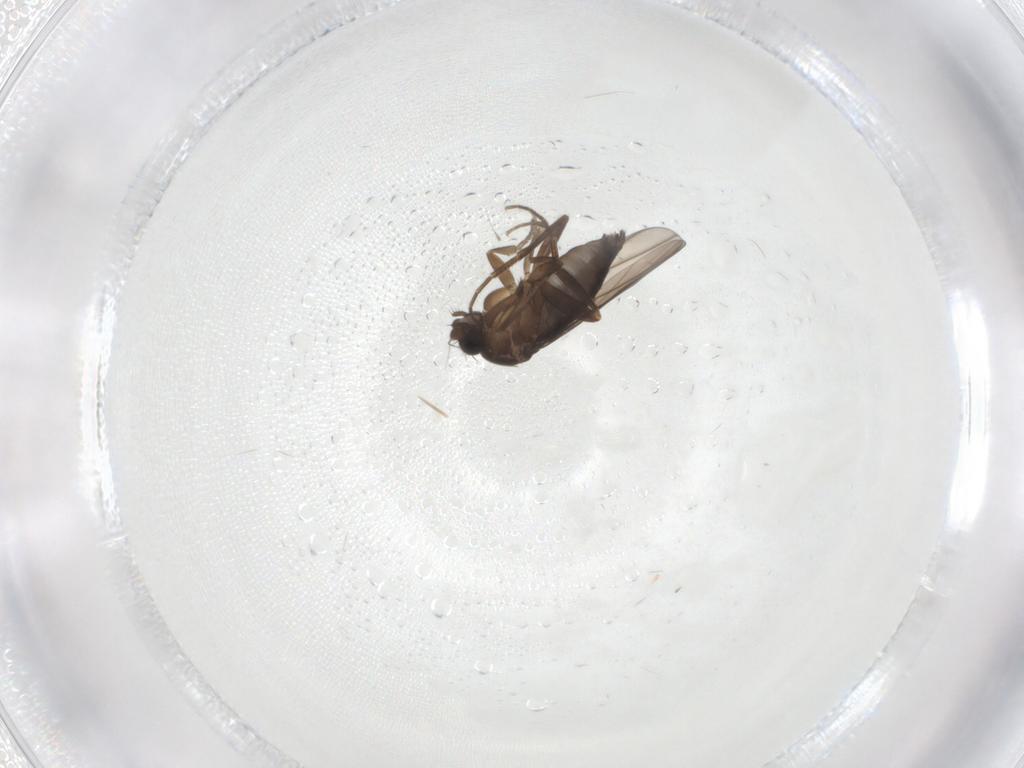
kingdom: Animalia
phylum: Arthropoda
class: Insecta
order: Diptera
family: Phoridae
